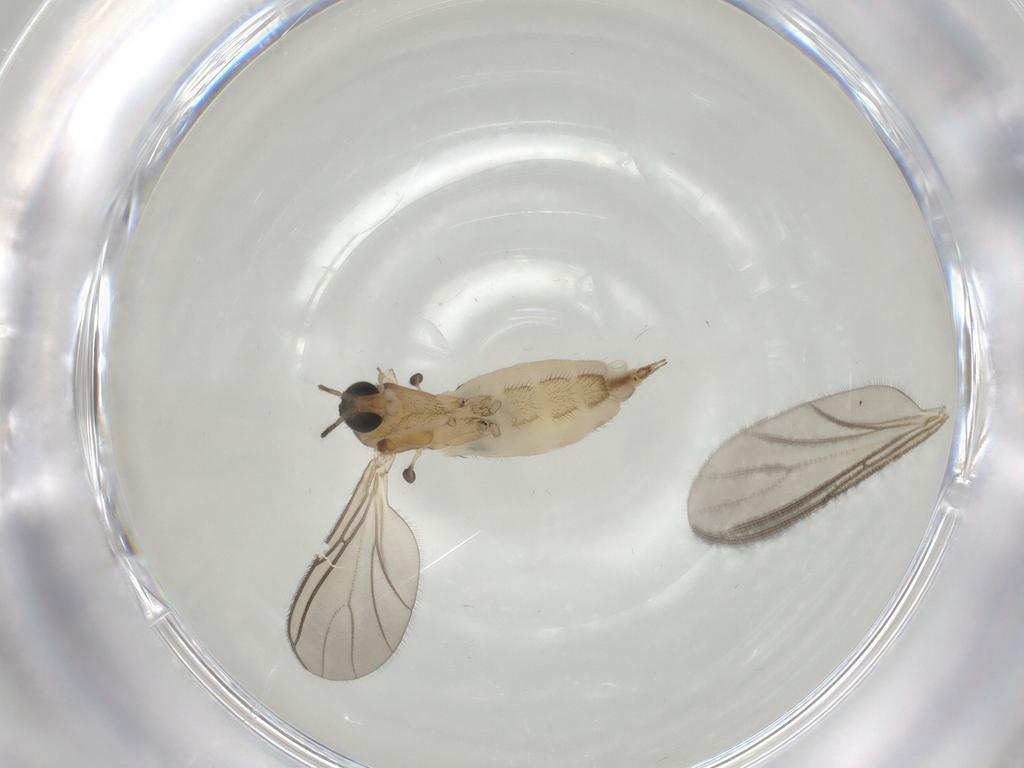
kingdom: Animalia
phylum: Arthropoda
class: Insecta
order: Diptera
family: Sciaridae
